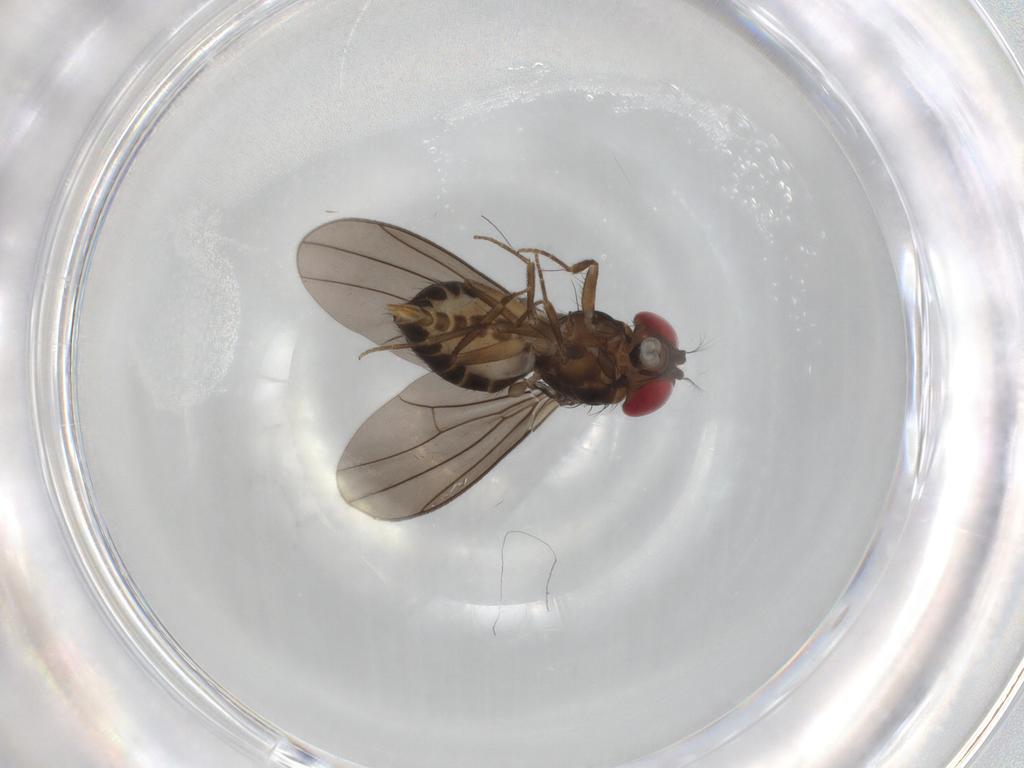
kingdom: Animalia
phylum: Arthropoda
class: Insecta
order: Diptera
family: Drosophilidae
